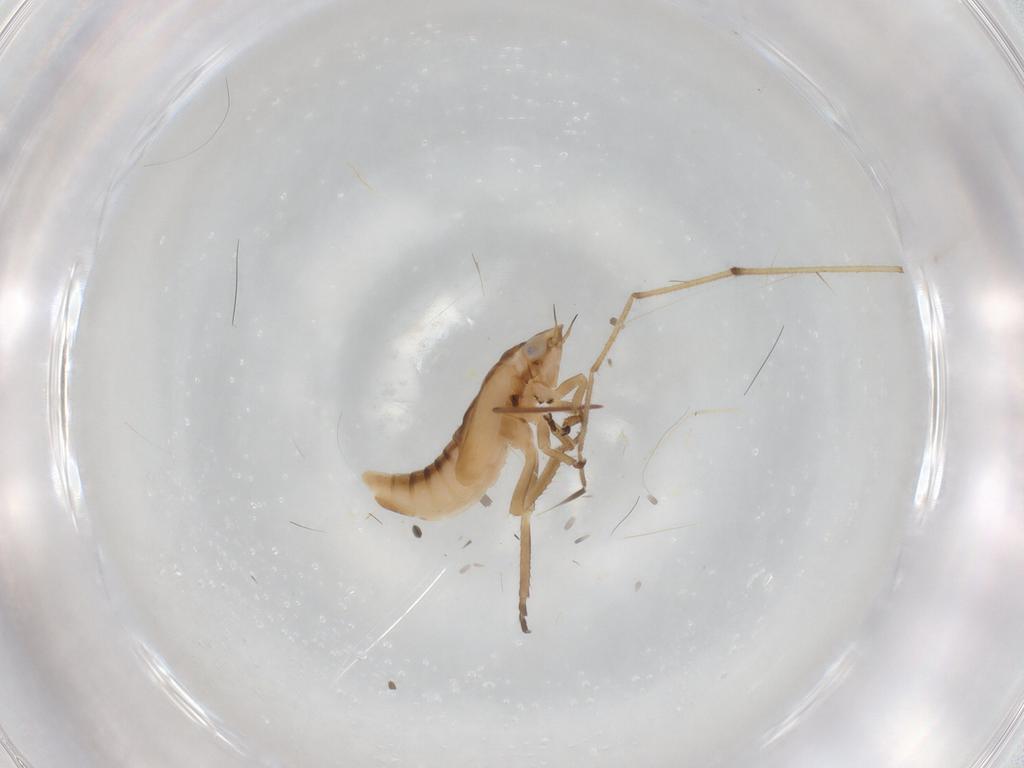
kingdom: Animalia
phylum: Arthropoda
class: Insecta
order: Hemiptera
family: Cicadellidae
